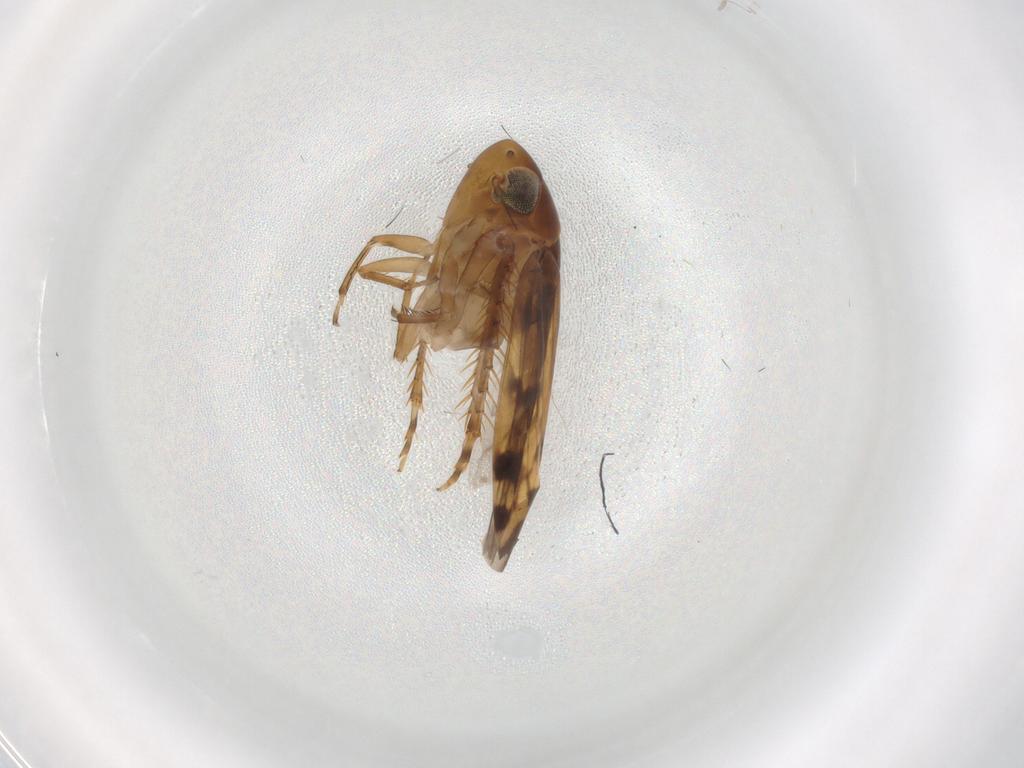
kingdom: Animalia
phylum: Arthropoda
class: Insecta
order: Hemiptera
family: Cicadellidae
